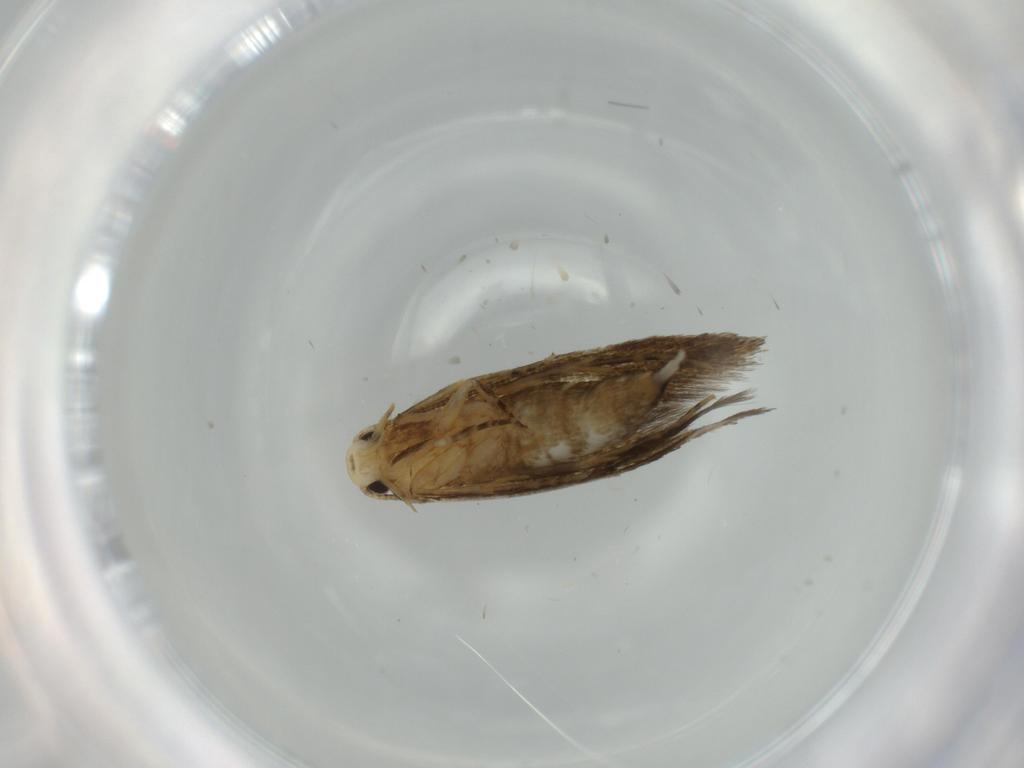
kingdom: Animalia
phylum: Arthropoda
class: Insecta
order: Lepidoptera
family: Tineidae
